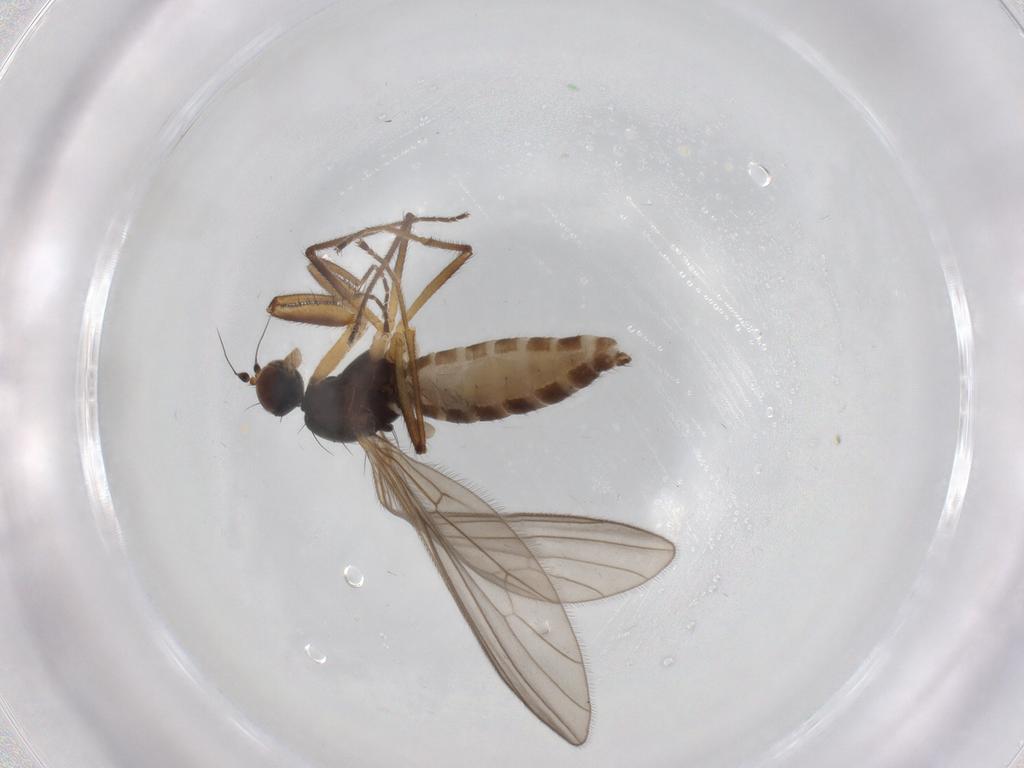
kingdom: Animalia
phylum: Arthropoda
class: Insecta
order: Diptera
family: Empididae
